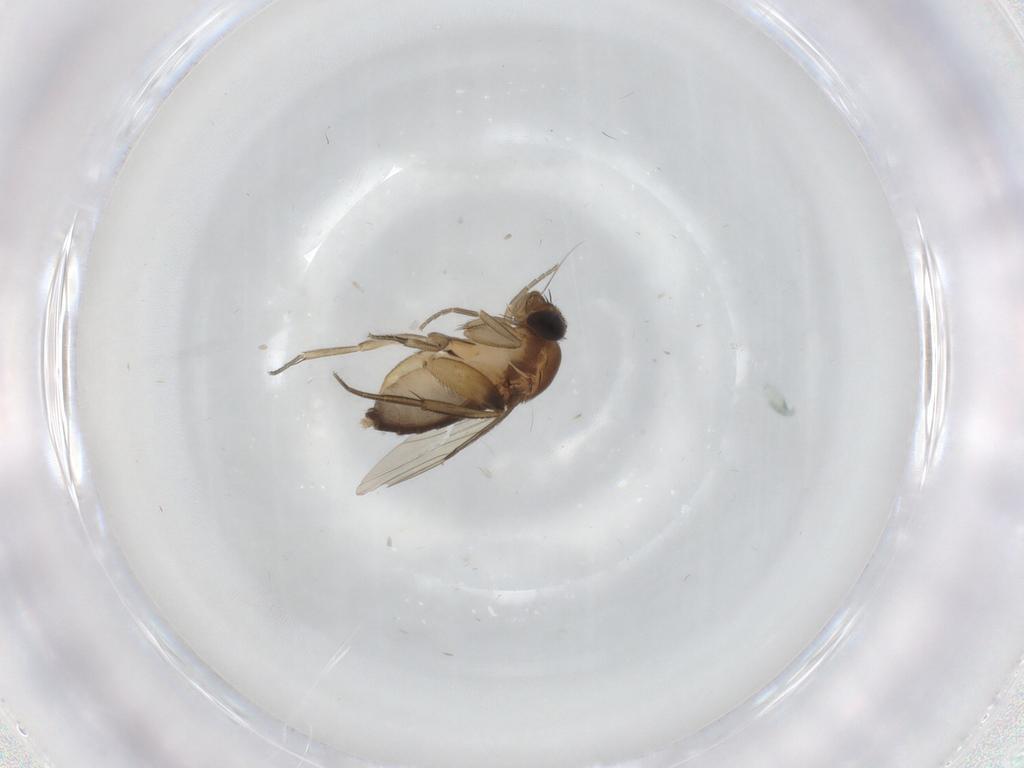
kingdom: Animalia
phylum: Arthropoda
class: Insecta
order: Diptera
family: Phoridae
